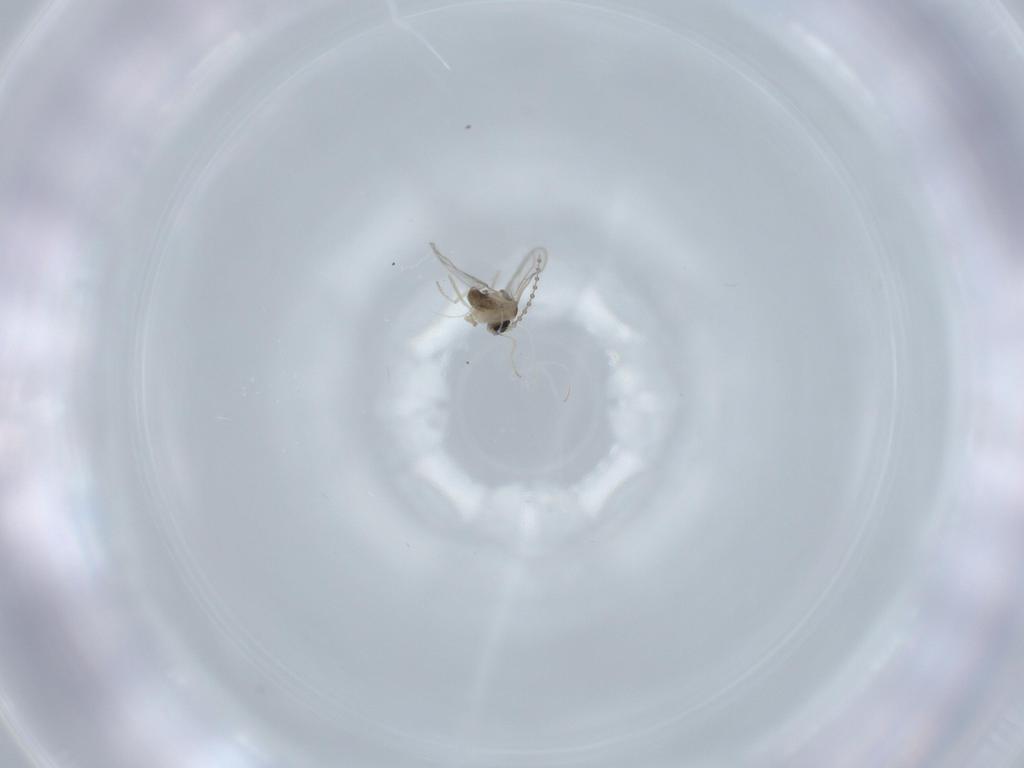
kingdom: Animalia
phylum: Arthropoda
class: Insecta
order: Diptera
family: Cecidomyiidae
